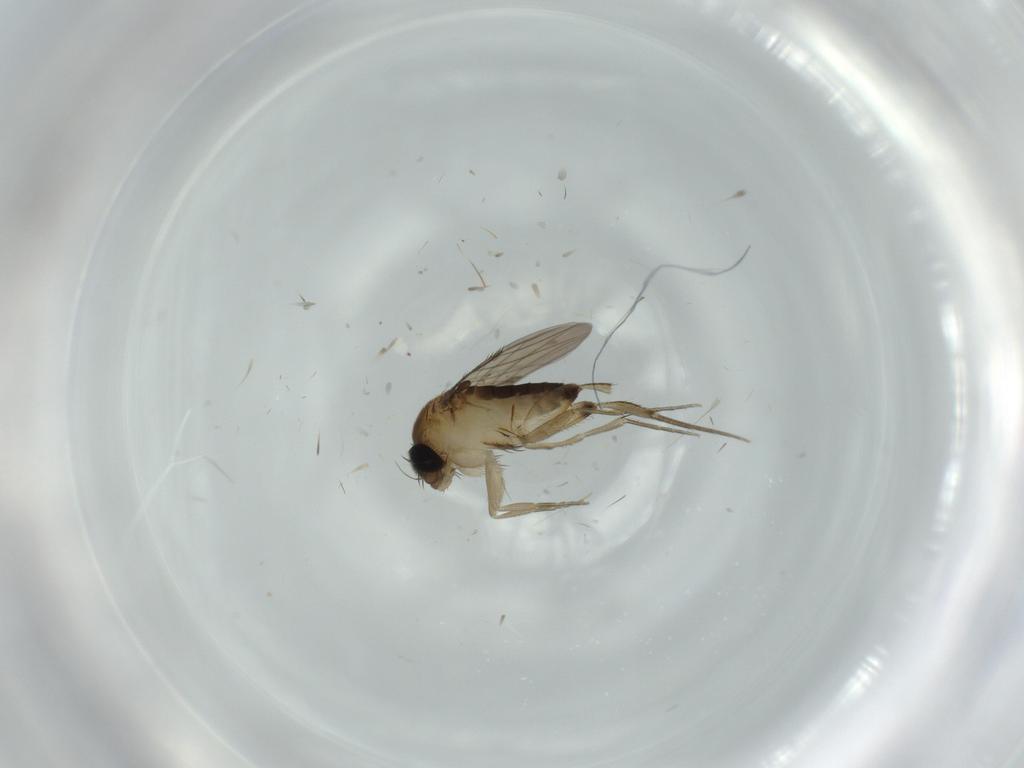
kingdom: Animalia
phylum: Arthropoda
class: Insecta
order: Diptera
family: Phoridae
